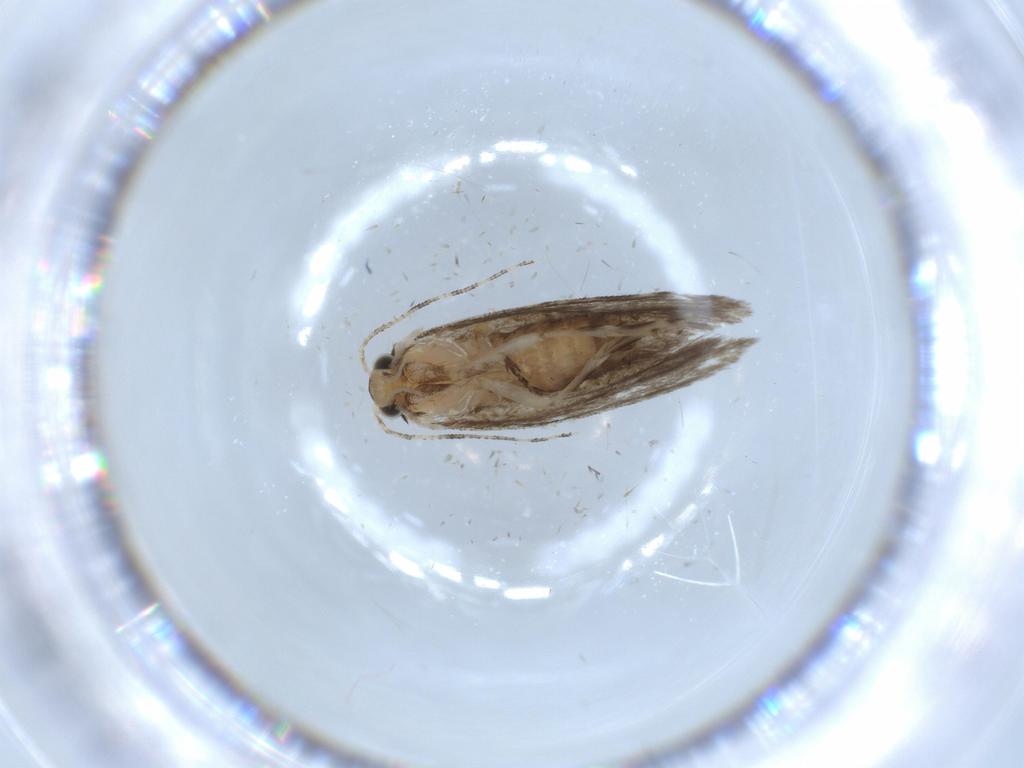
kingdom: Animalia
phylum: Arthropoda
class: Insecta
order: Lepidoptera
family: Tineidae
